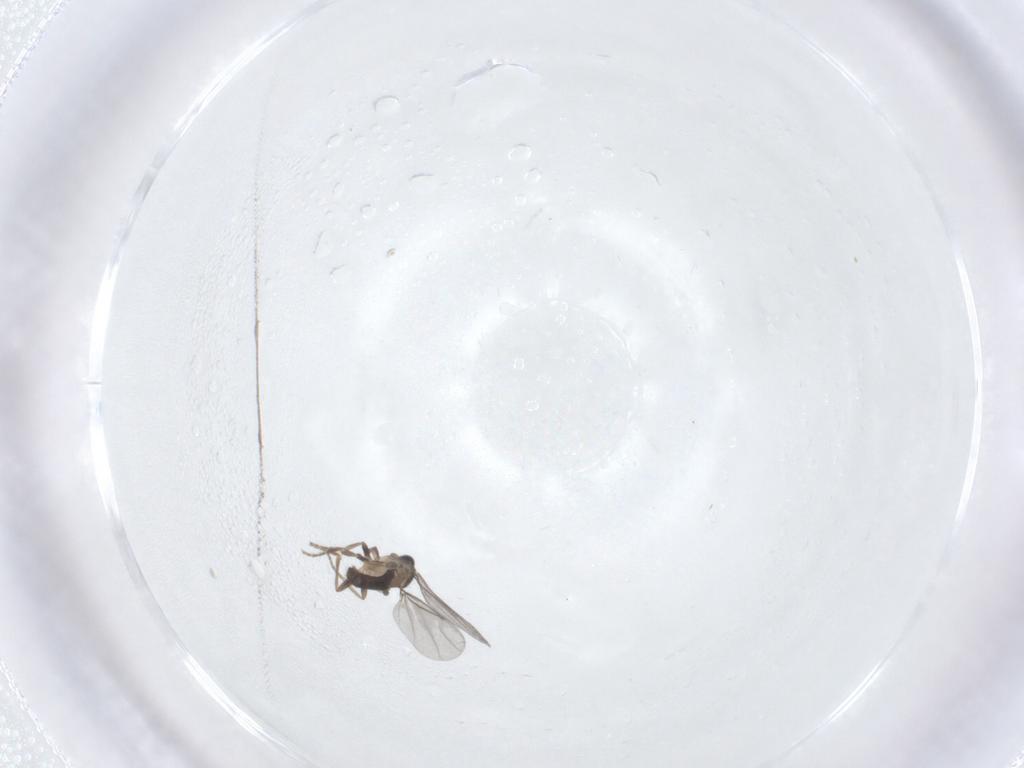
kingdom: Animalia
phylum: Arthropoda
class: Insecta
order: Diptera
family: Phoridae
